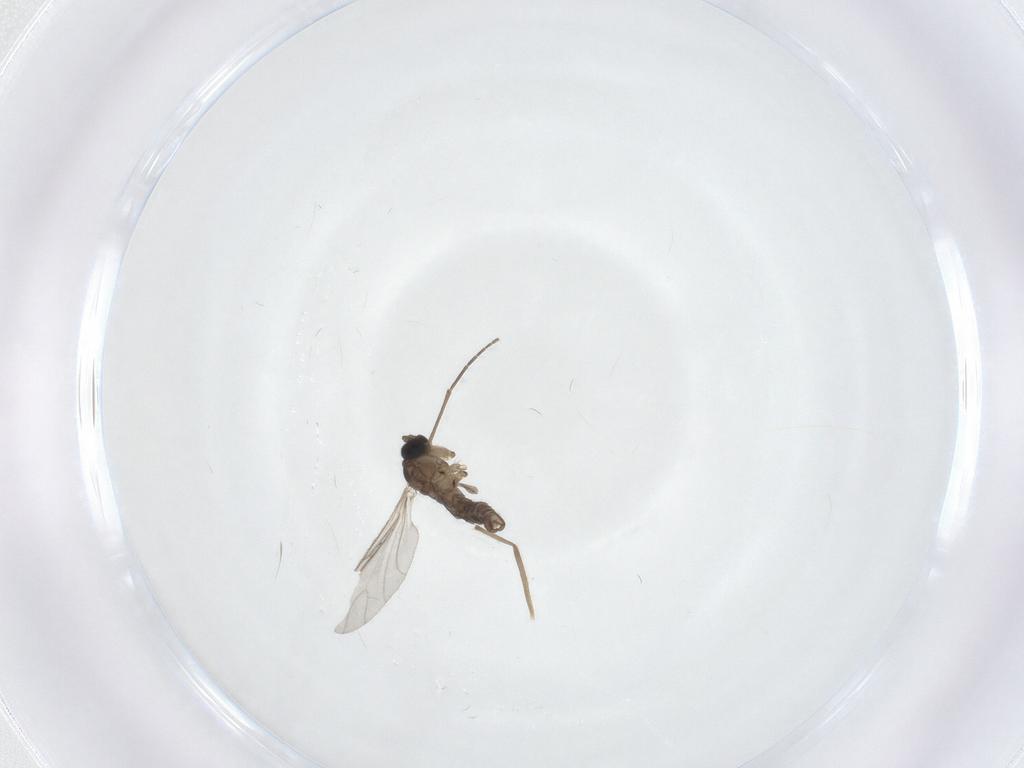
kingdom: Animalia
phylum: Arthropoda
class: Insecta
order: Diptera
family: Sciaridae
